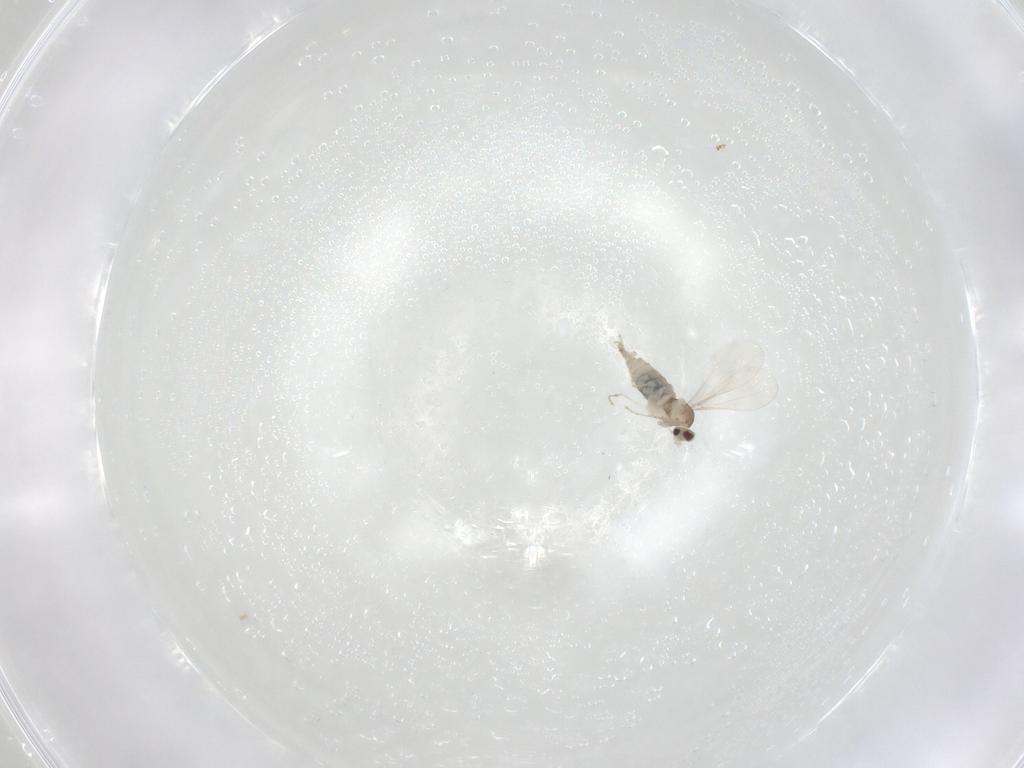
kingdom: Animalia
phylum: Arthropoda
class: Insecta
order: Diptera
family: Cecidomyiidae
